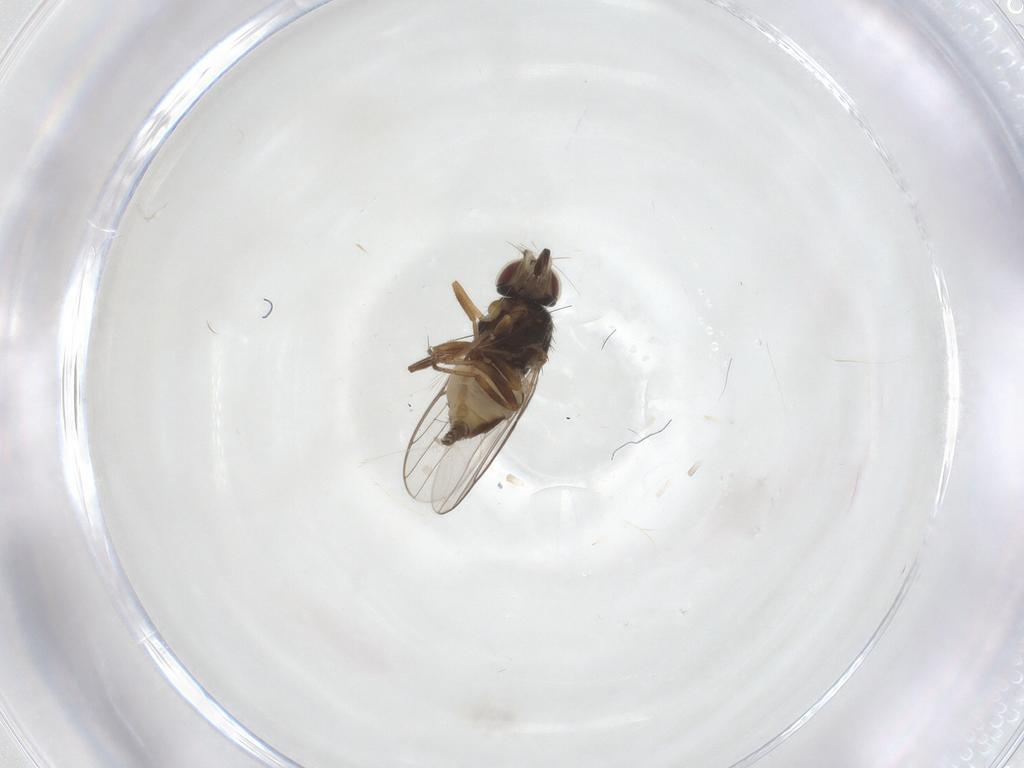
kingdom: Animalia
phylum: Arthropoda
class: Insecta
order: Diptera
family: Chloropidae
